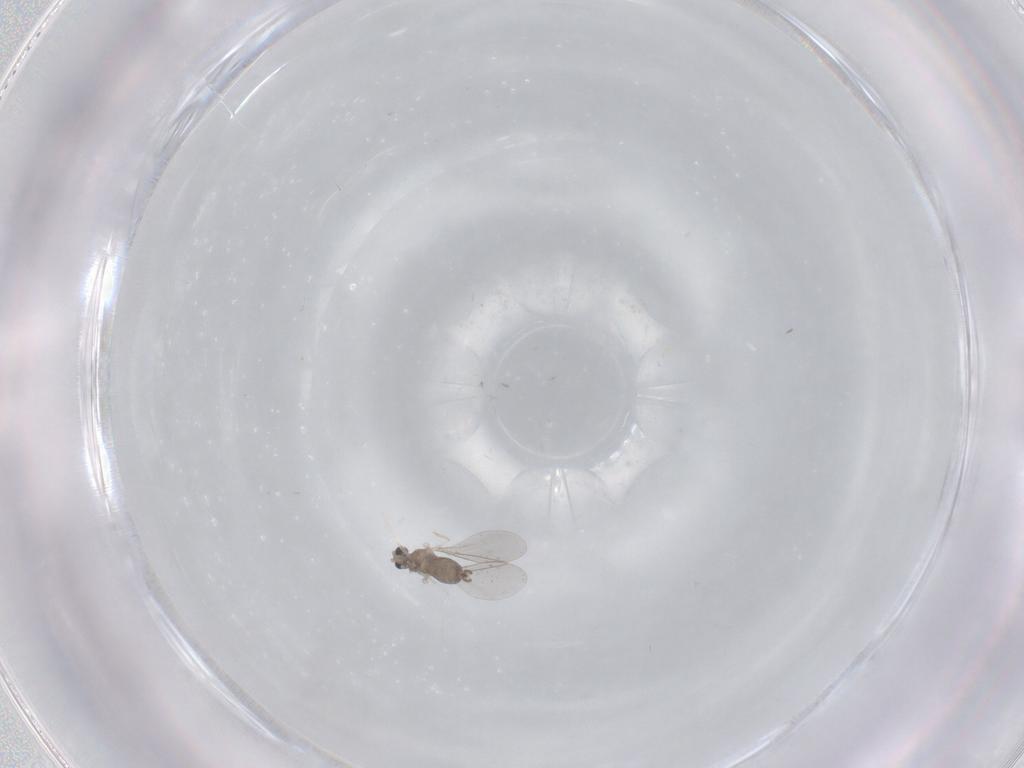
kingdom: Animalia
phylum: Arthropoda
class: Insecta
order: Diptera
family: Cecidomyiidae
